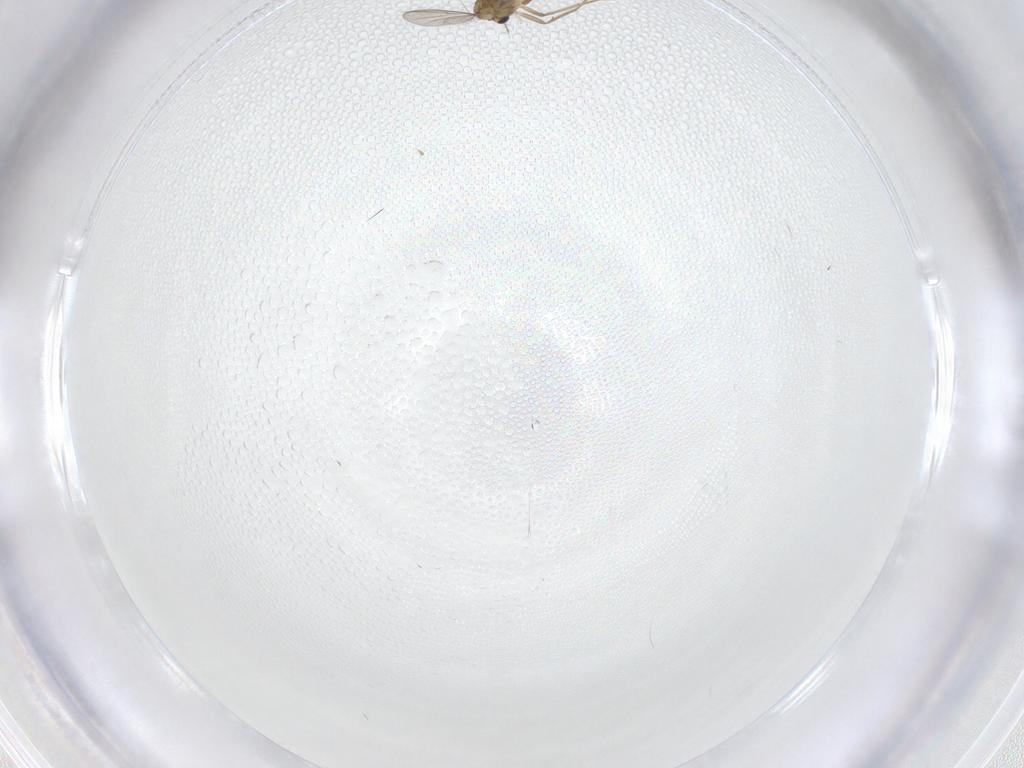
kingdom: Animalia
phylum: Arthropoda
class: Insecta
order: Diptera
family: Chironomidae
